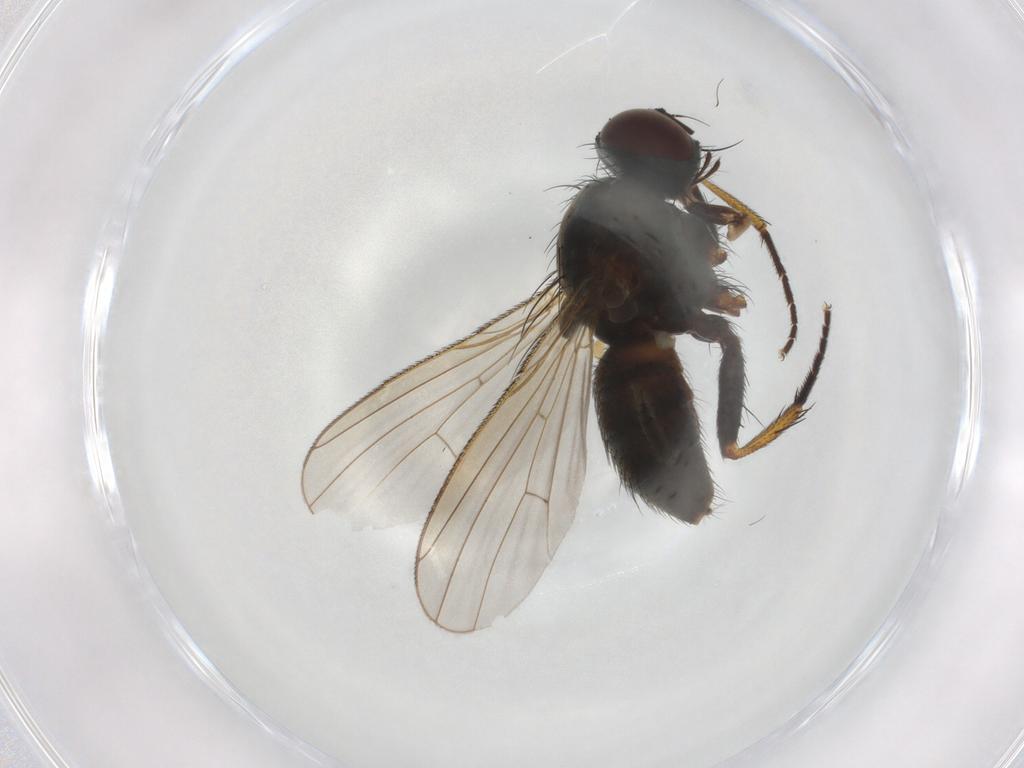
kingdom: Animalia
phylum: Arthropoda
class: Insecta
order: Diptera
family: Muscidae
